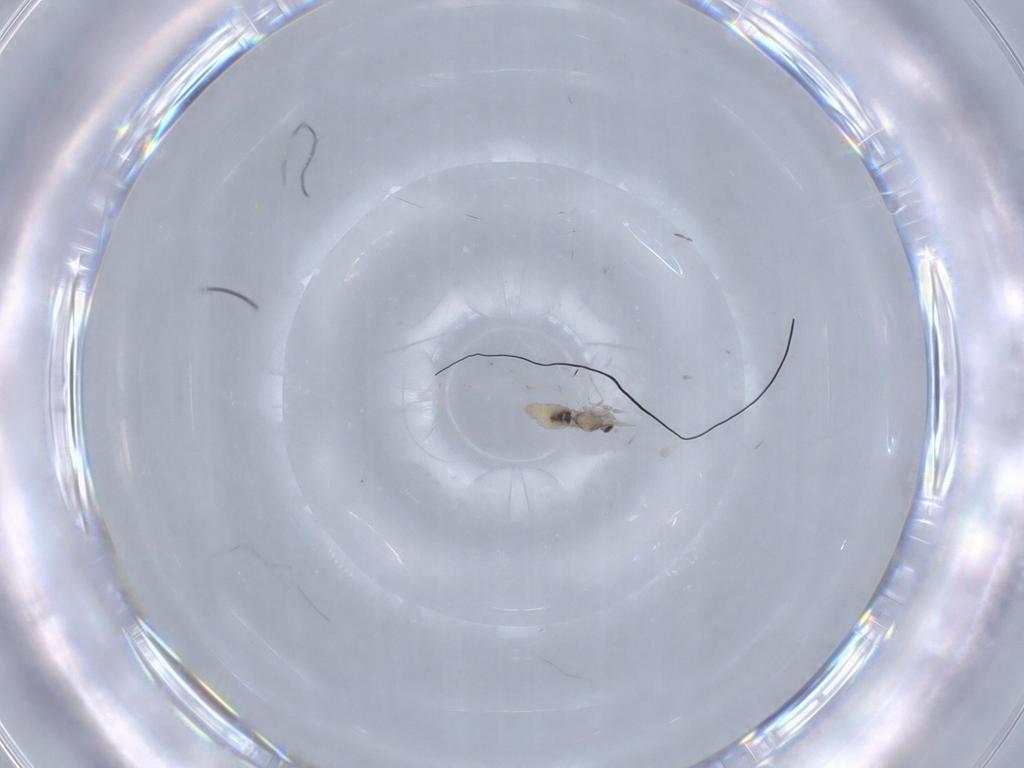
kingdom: Animalia
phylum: Arthropoda
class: Insecta
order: Diptera
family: Cecidomyiidae
